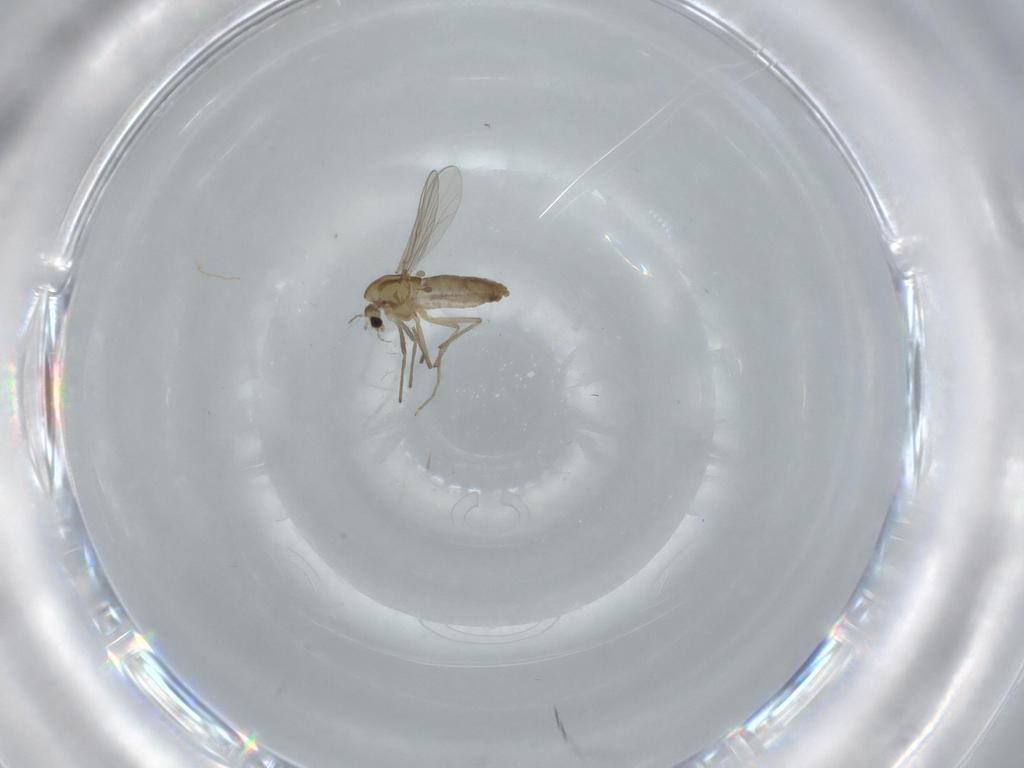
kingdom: Animalia
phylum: Arthropoda
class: Insecta
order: Diptera
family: Chironomidae
